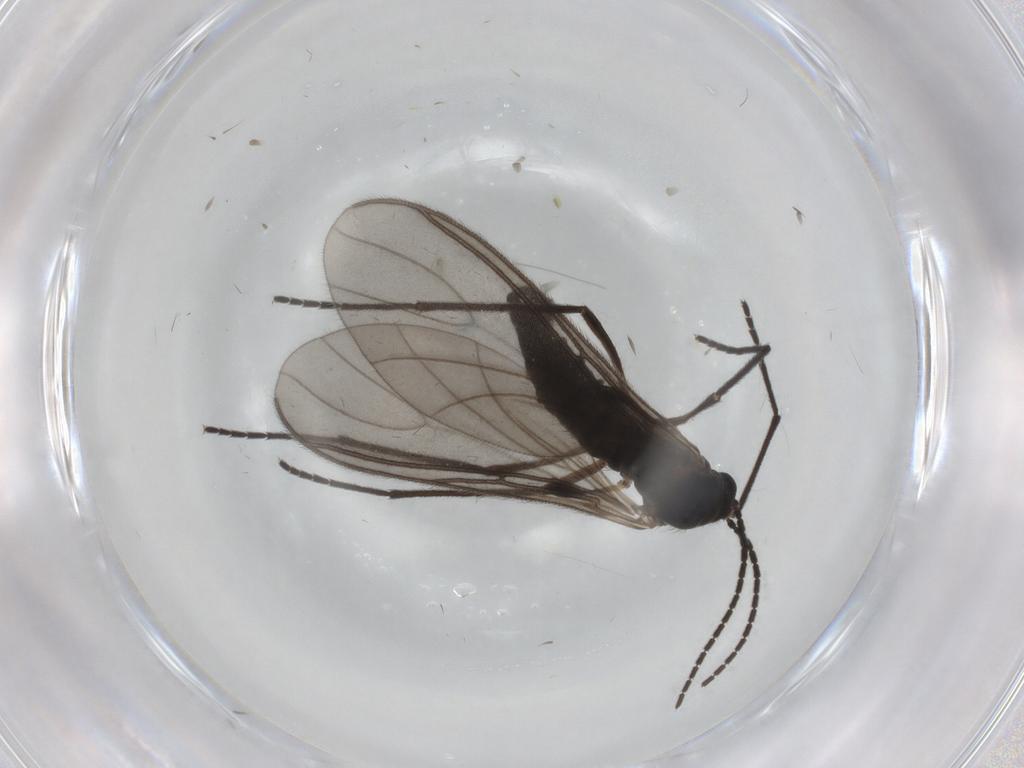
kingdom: Animalia
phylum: Arthropoda
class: Insecta
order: Diptera
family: Sciaridae
